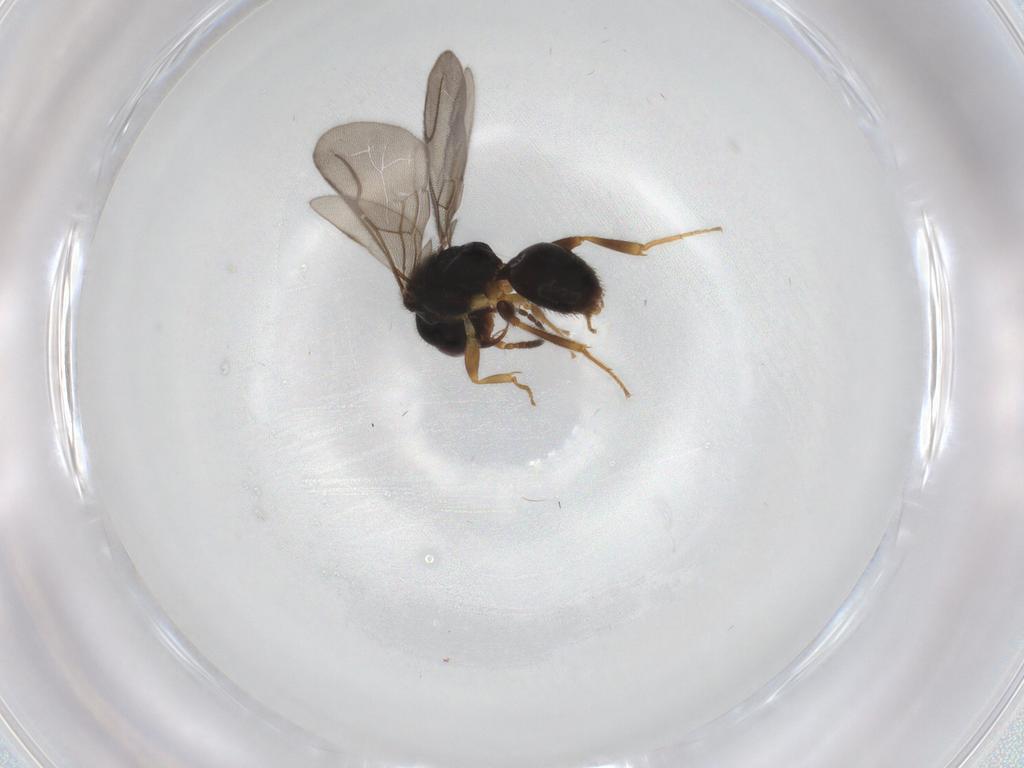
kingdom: Animalia
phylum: Arthropoda
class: Insecta
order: Hymenoptera
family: Bethylidae
